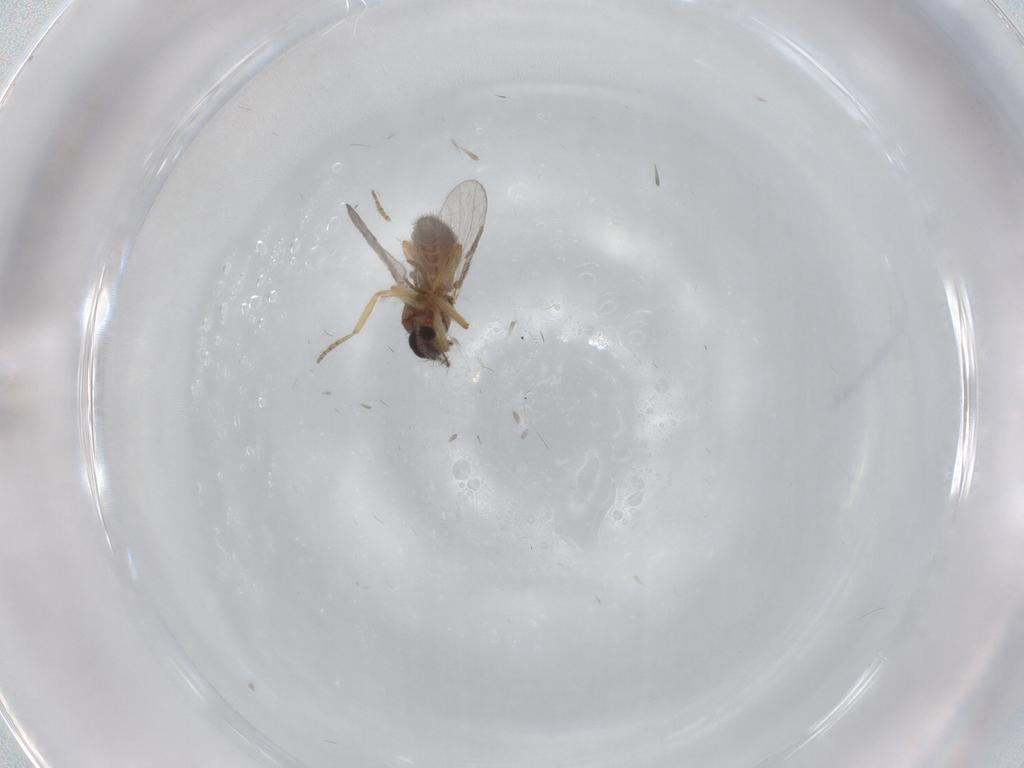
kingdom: Animalia
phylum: Arthropoda
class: Insecta
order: Diptera
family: Ceratopogonidae
